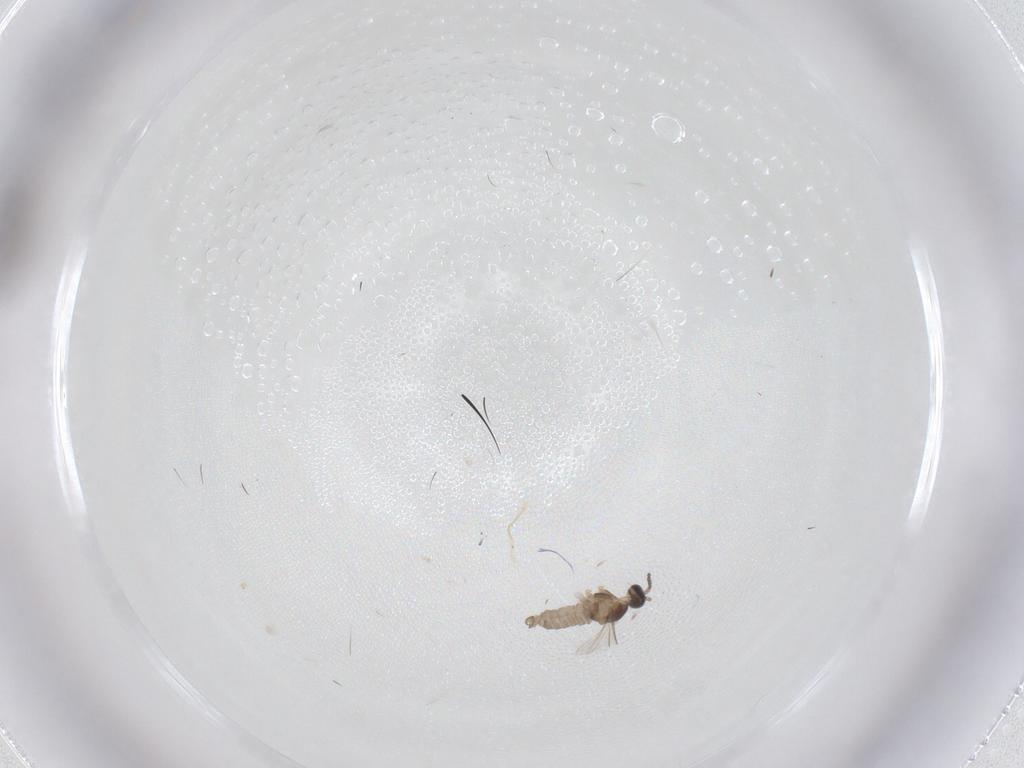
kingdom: Animalia
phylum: Arthropoda
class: Insecta
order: Diptera
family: Cecidomyiidae
